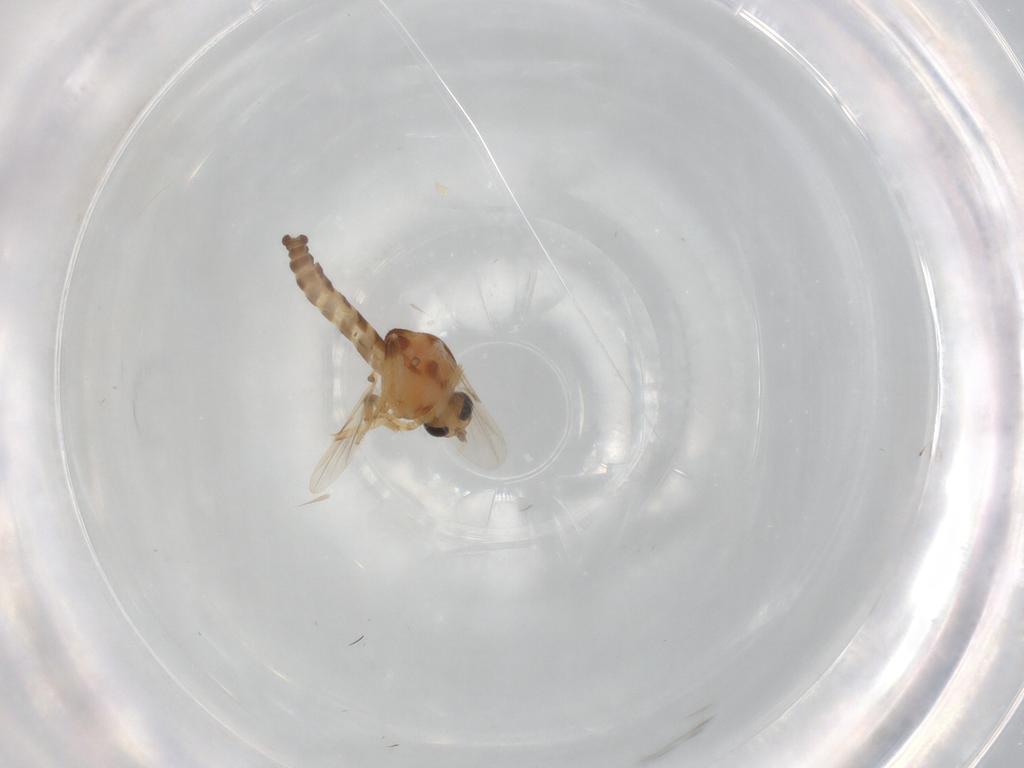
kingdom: Animalia
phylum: Arthropoda
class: Insecta
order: Diptera
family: Ceratopogonidae
